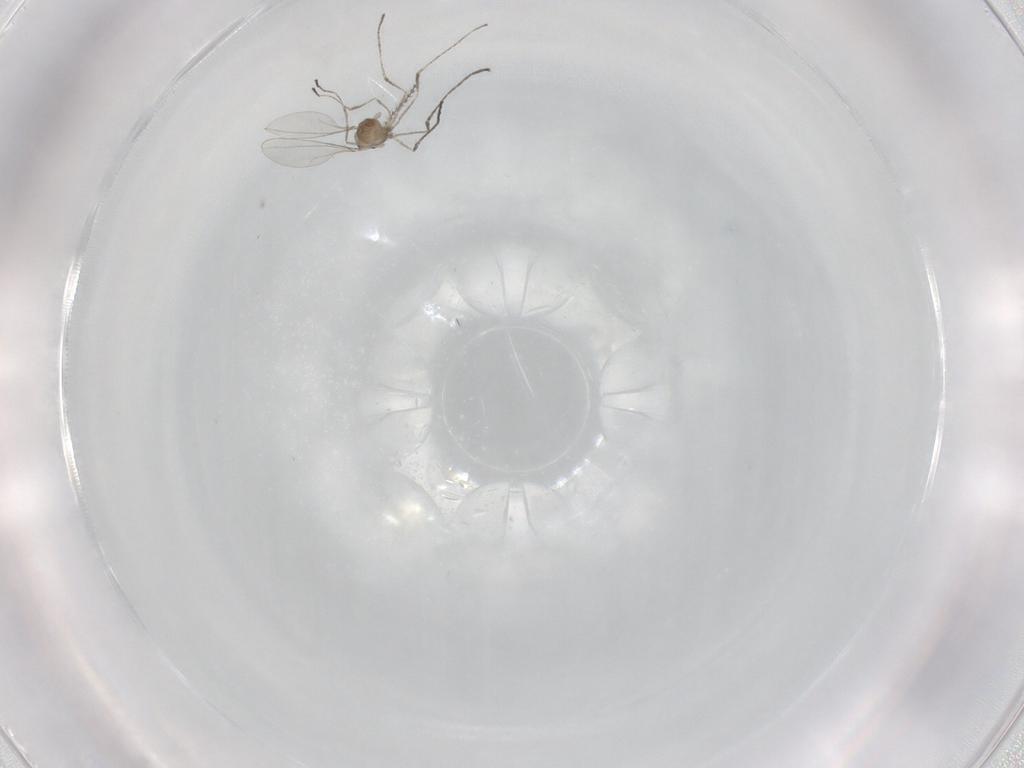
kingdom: Animalia
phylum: Arthropoda
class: Insecta
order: Diptera
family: Cecidomyiidae
